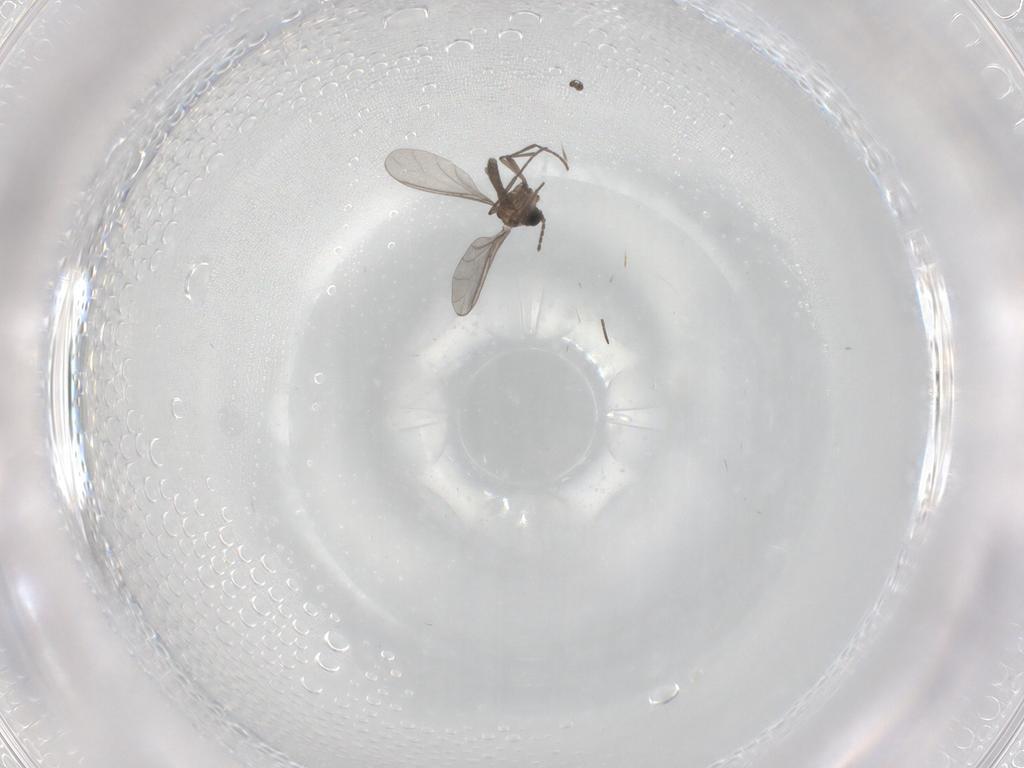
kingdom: Animalia
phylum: Arthropoda
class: Insecta
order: Diptera
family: Sciaridae
